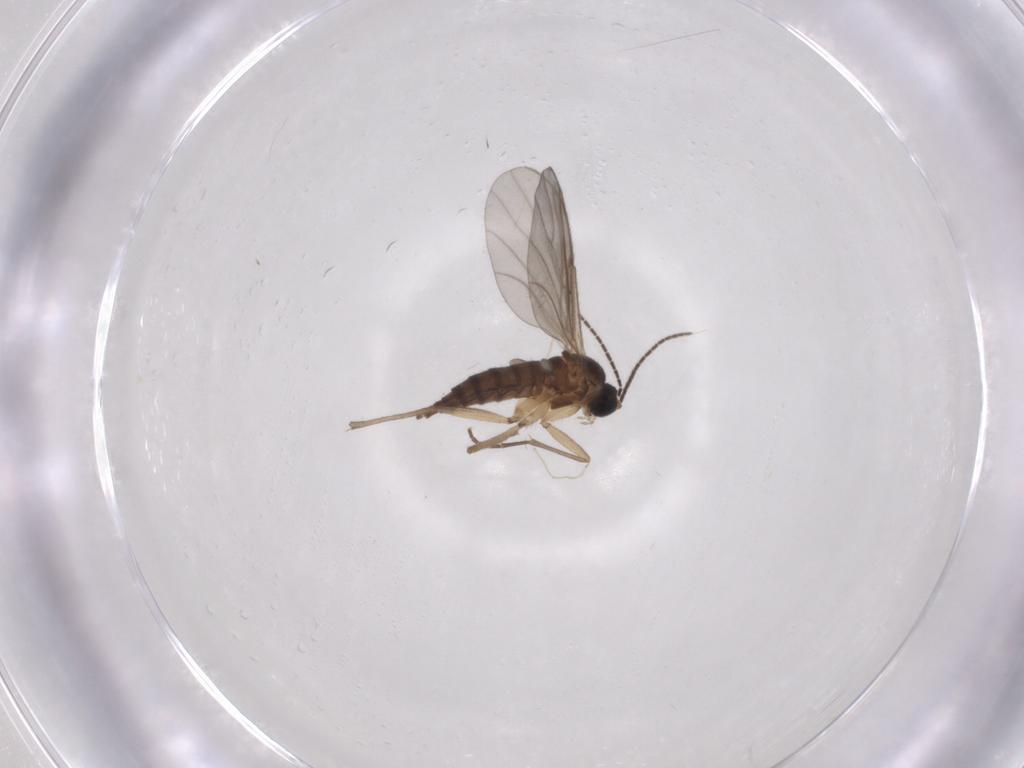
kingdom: Animalia
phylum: Arthropoda
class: Insecta
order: Diptera
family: Sciaridae
